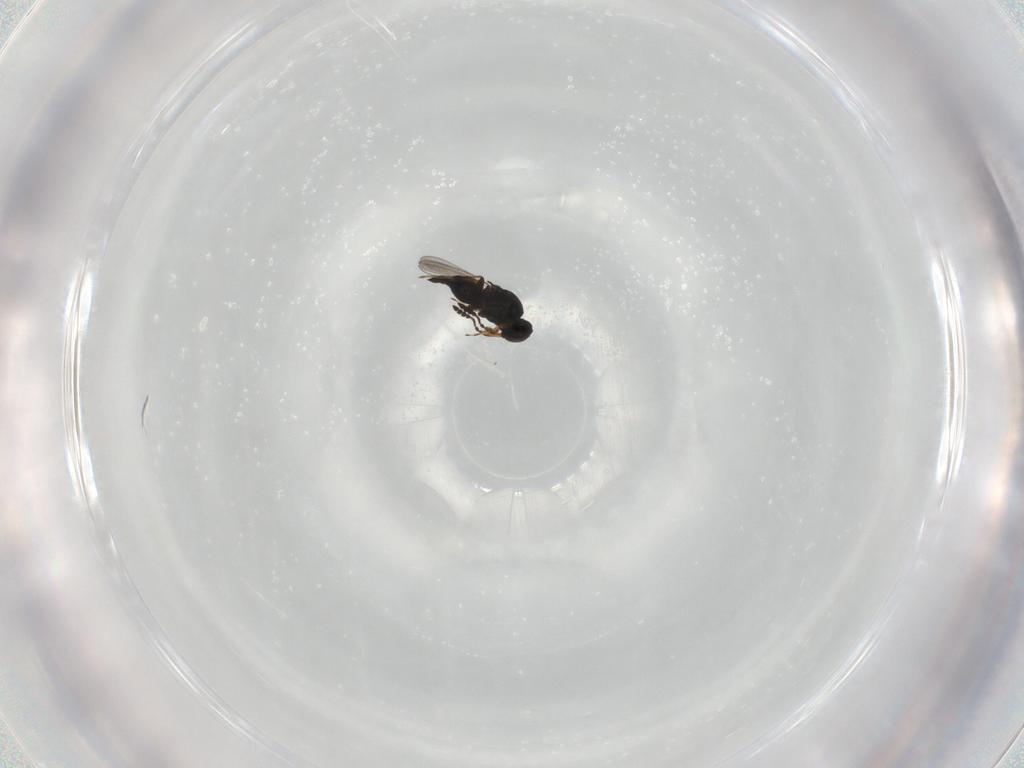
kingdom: Animalia
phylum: Arthropoda
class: Insecta
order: Hymenoptera
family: Platygastridae
